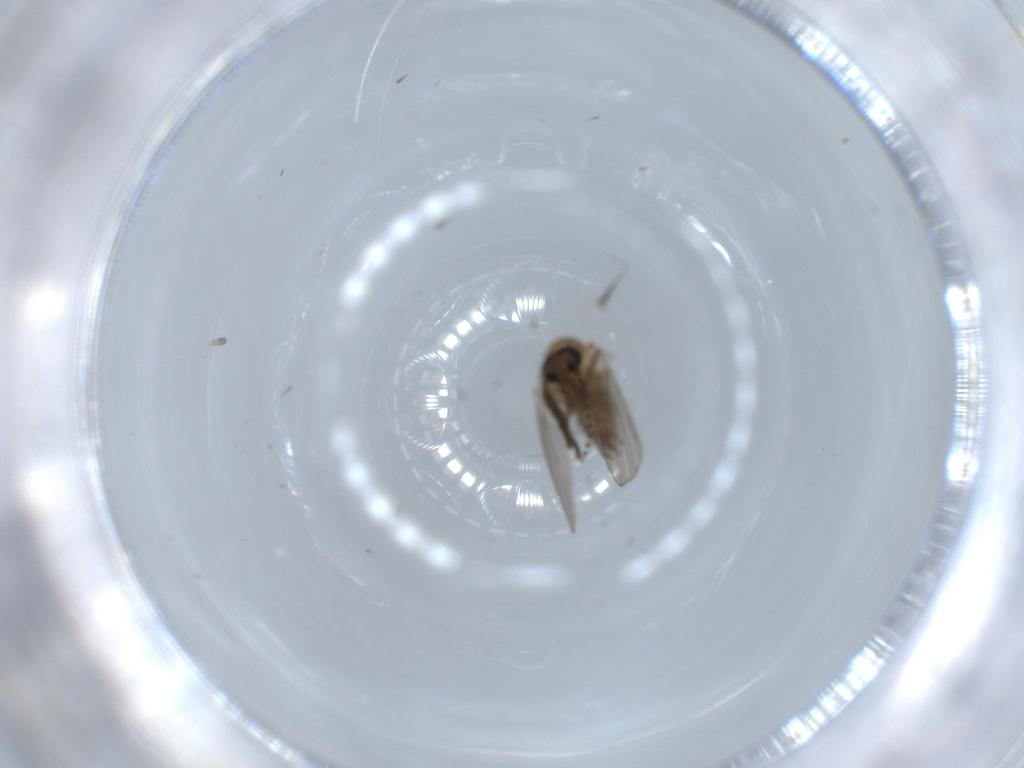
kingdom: Animalia
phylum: Arthropoda
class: Insecta
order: Diptera
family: Psychodidae
